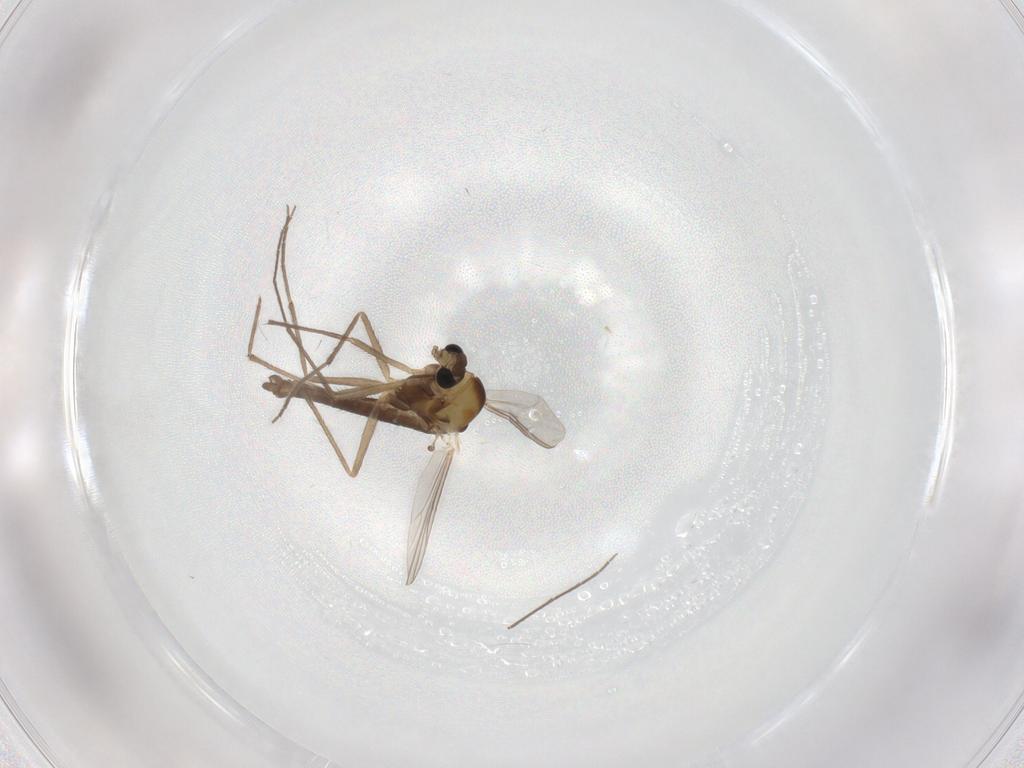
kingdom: Animalia
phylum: Arthropoda
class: Insecta
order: Diptera
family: Chironomidae
